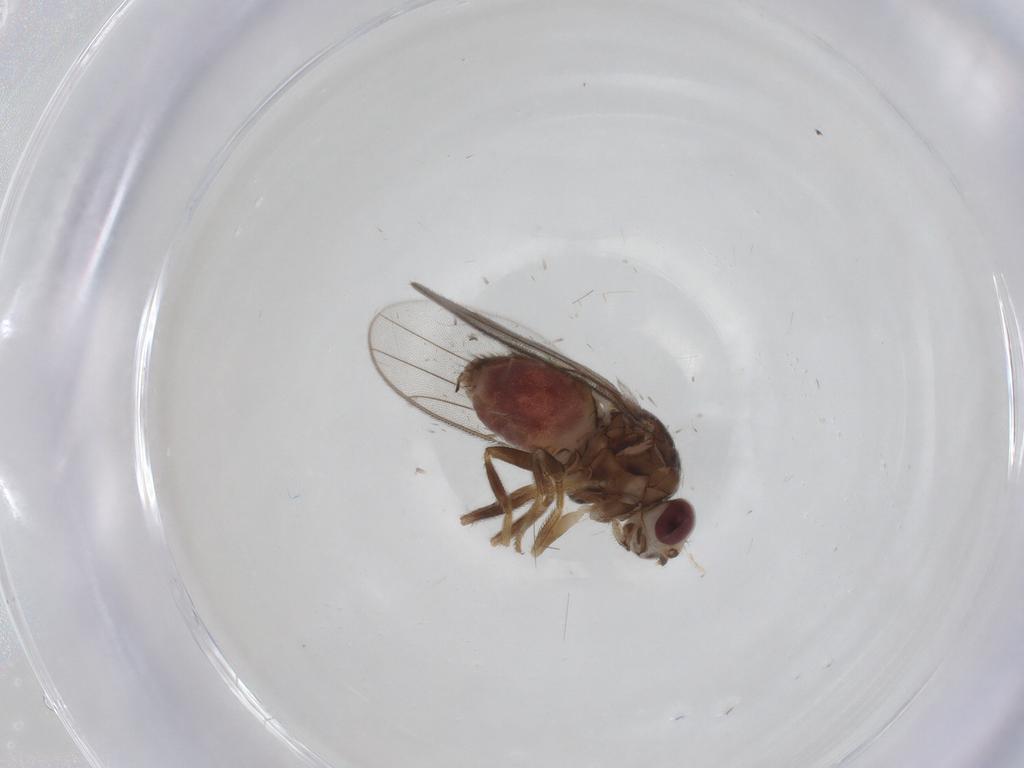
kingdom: Animalia
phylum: Arthropoda
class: Insecta
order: Diptera
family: Chloropidae
